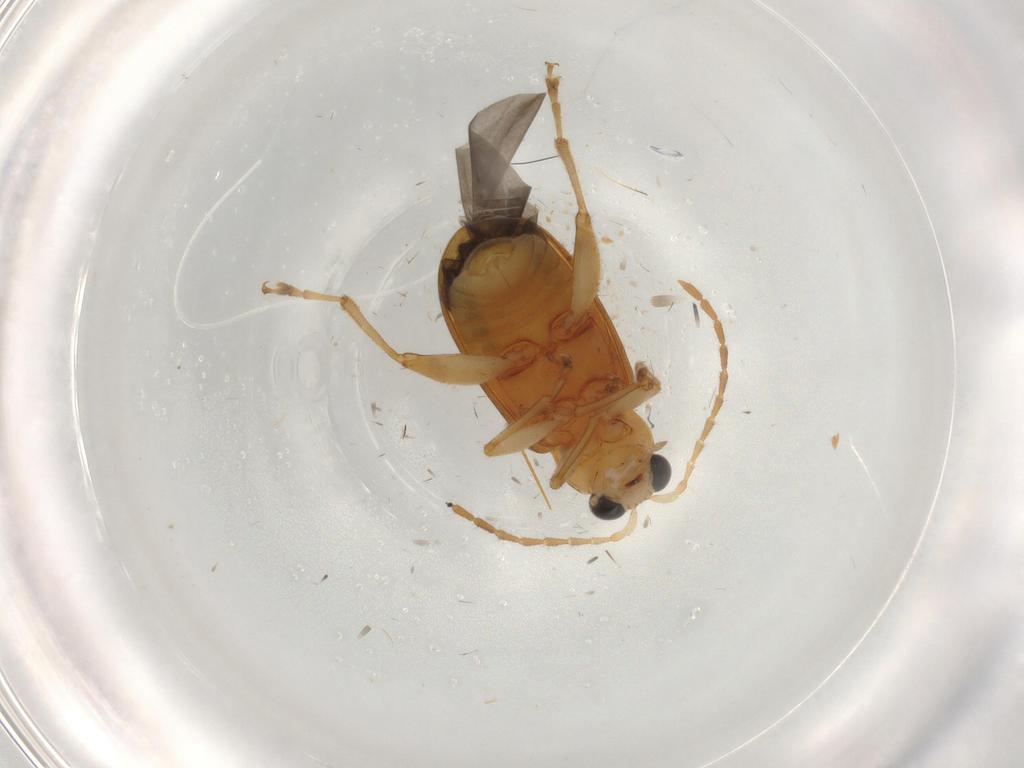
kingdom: Animalia
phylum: Arthropoda
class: Insecta
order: Coleoptera
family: Chrysomelidae
